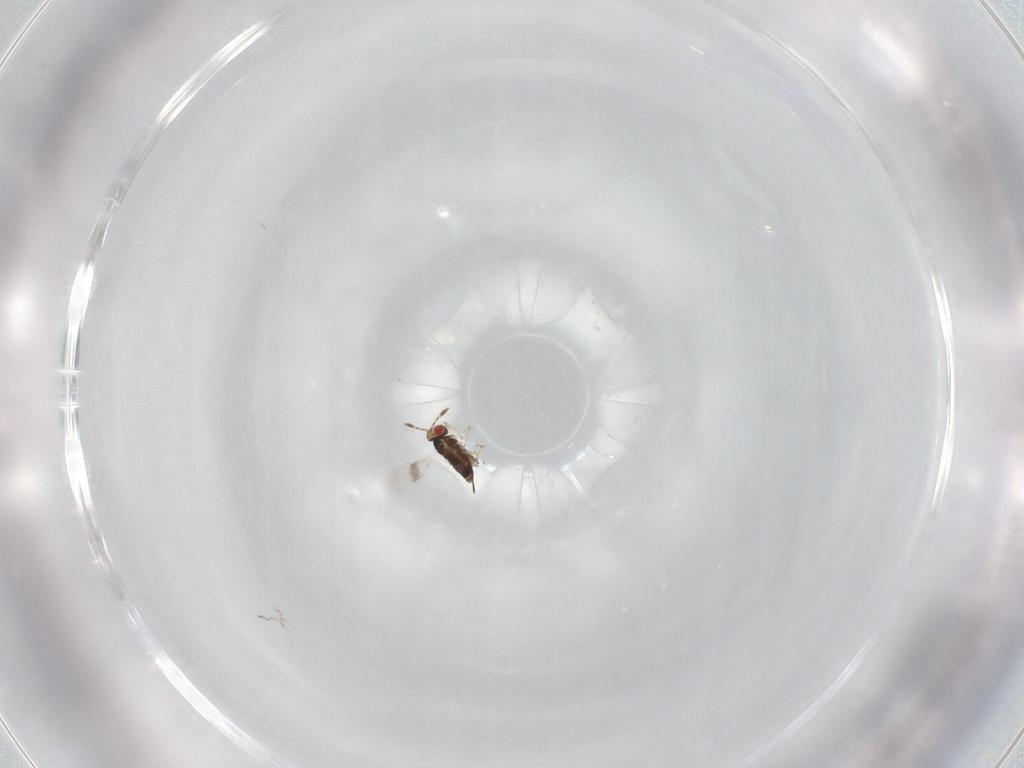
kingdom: Animalia
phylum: Arthropoda
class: Insecta
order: Hymenoptera
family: Azotidae
